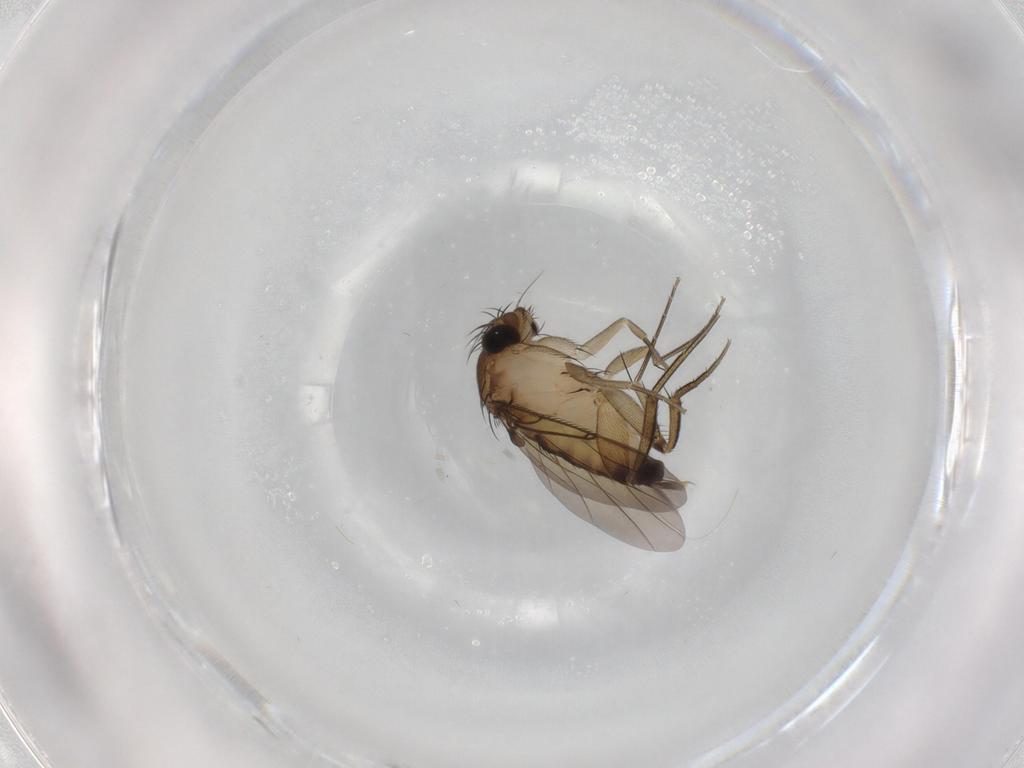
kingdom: Animalia
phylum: Arthropoda
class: Insecta
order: Diptera
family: Phoridae
